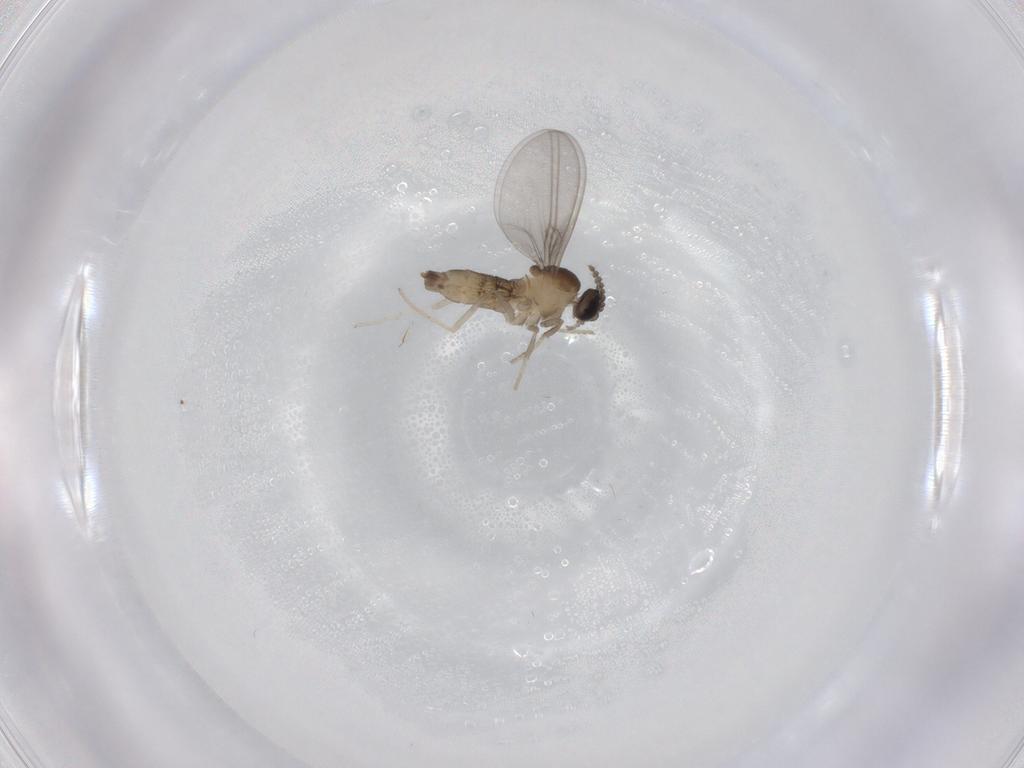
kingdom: Animalia
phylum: Arthropoda
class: Insecta
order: Diptera
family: Cecidomyiidae
